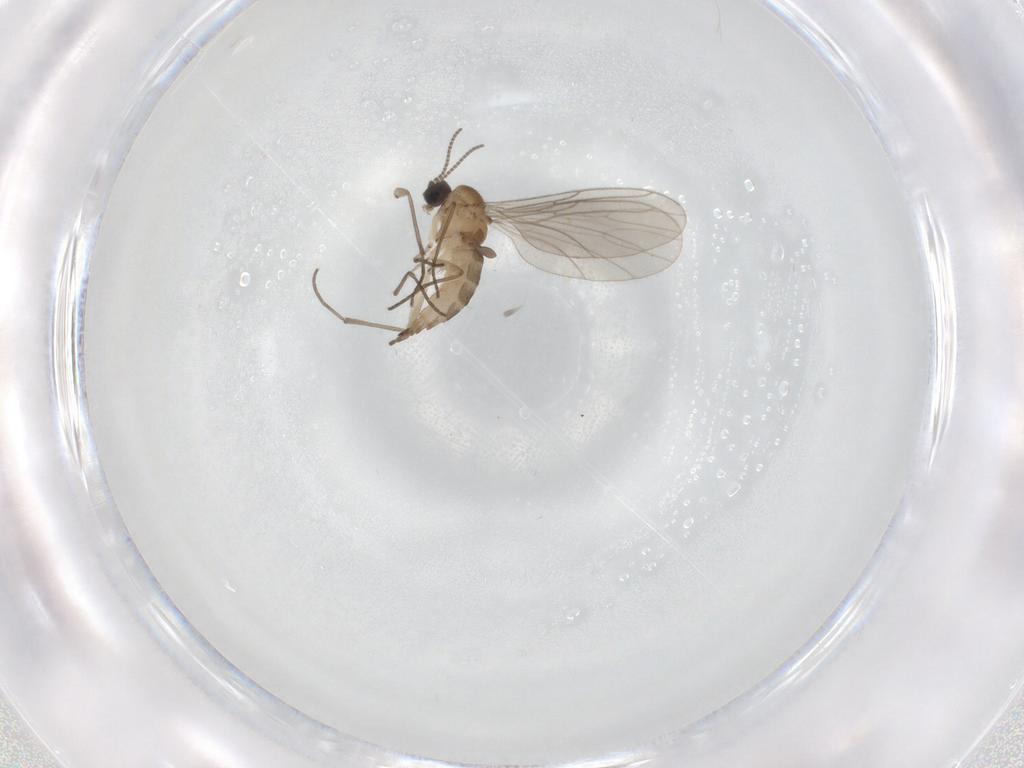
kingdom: Animalia
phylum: Arthropoda
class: Insecta
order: Diptera
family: Sciaridae
